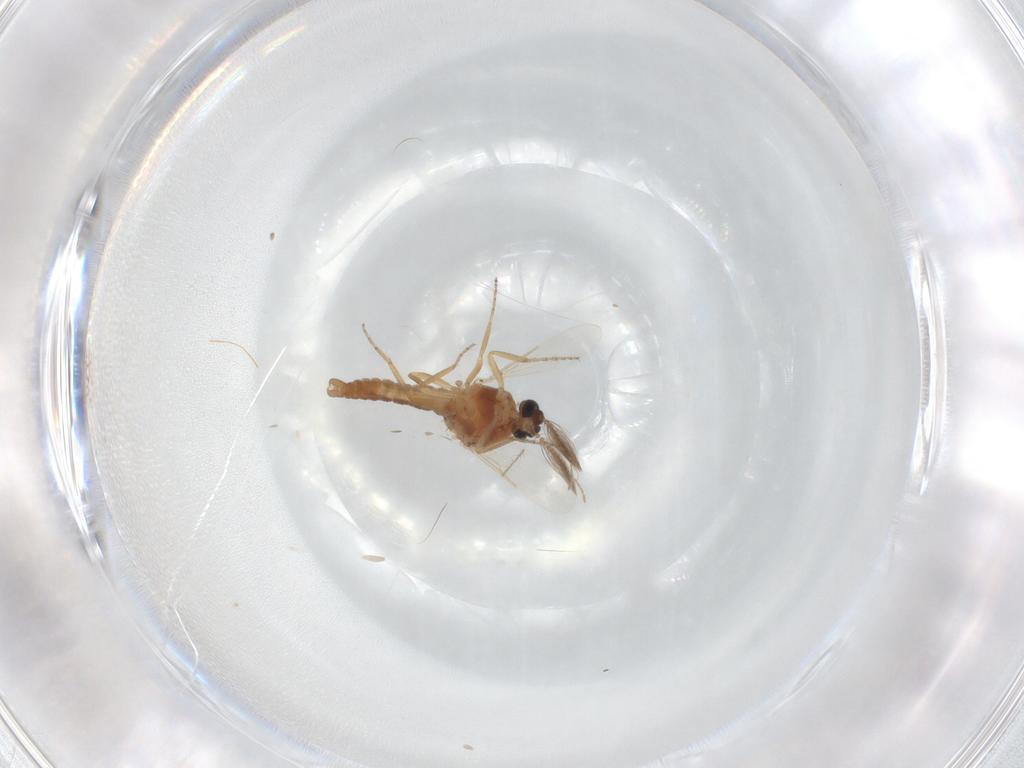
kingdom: Animalia
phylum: Arthropoda
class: Insecta
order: Diptera
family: Ceratopogonidae
